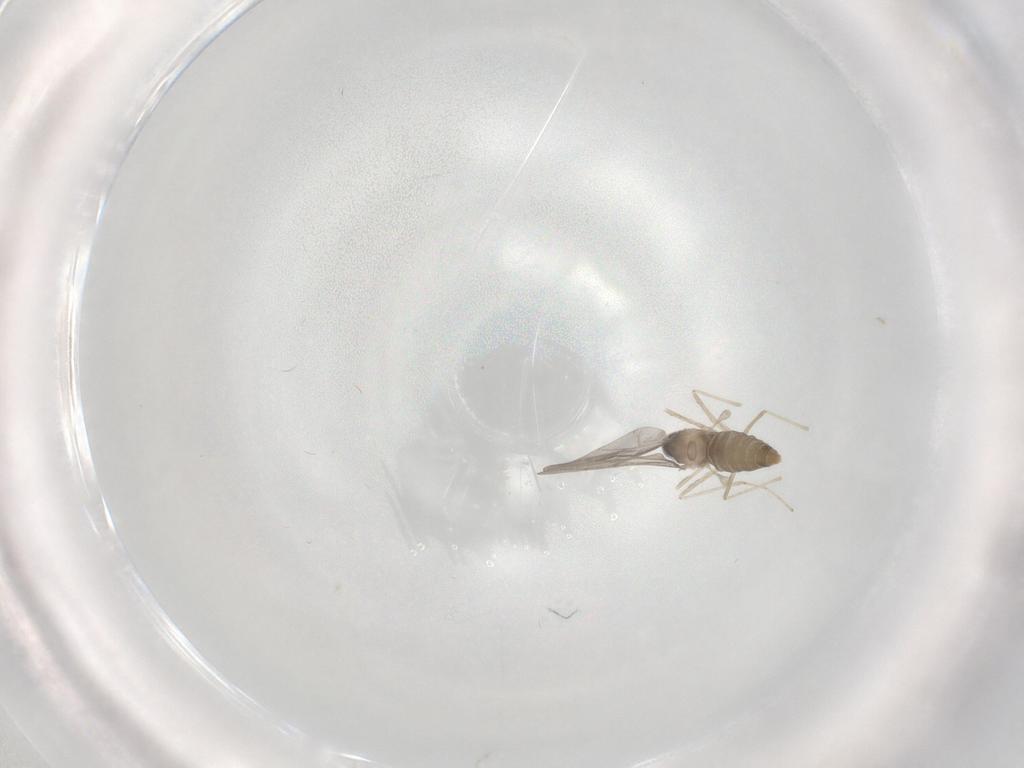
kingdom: Animalia
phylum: Arthropoda
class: Insecta
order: Diptera
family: Cecidomyiidae
